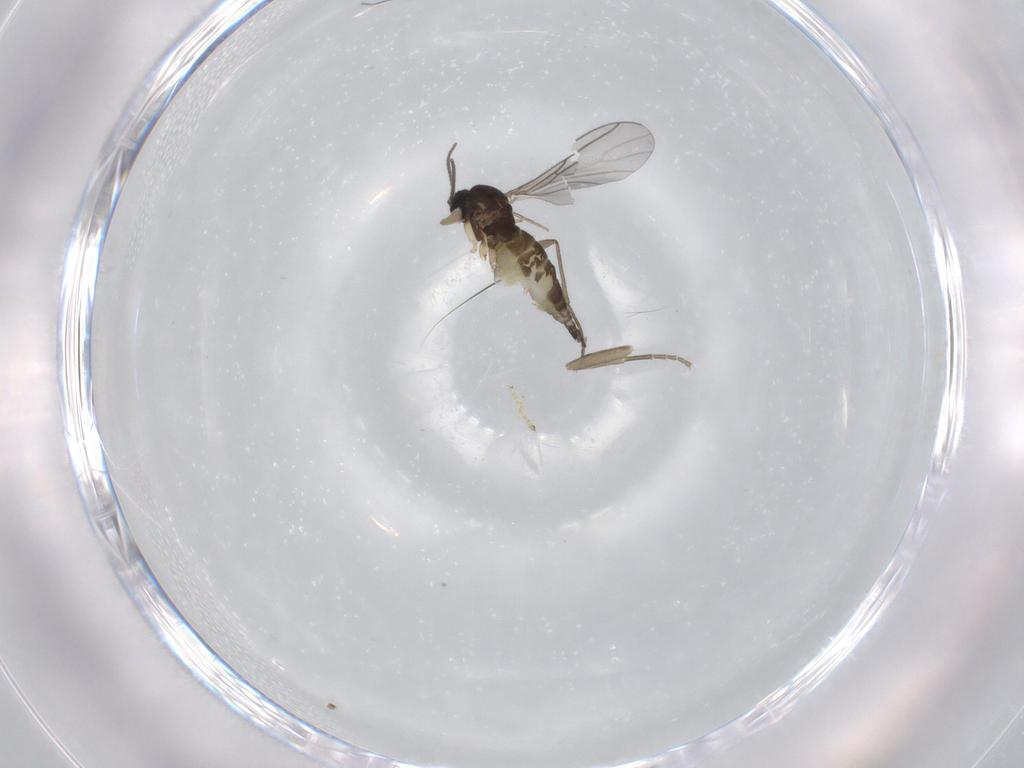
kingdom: Animalia
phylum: Arthropoda
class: Insecta
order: Diptera
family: Sciaridae
